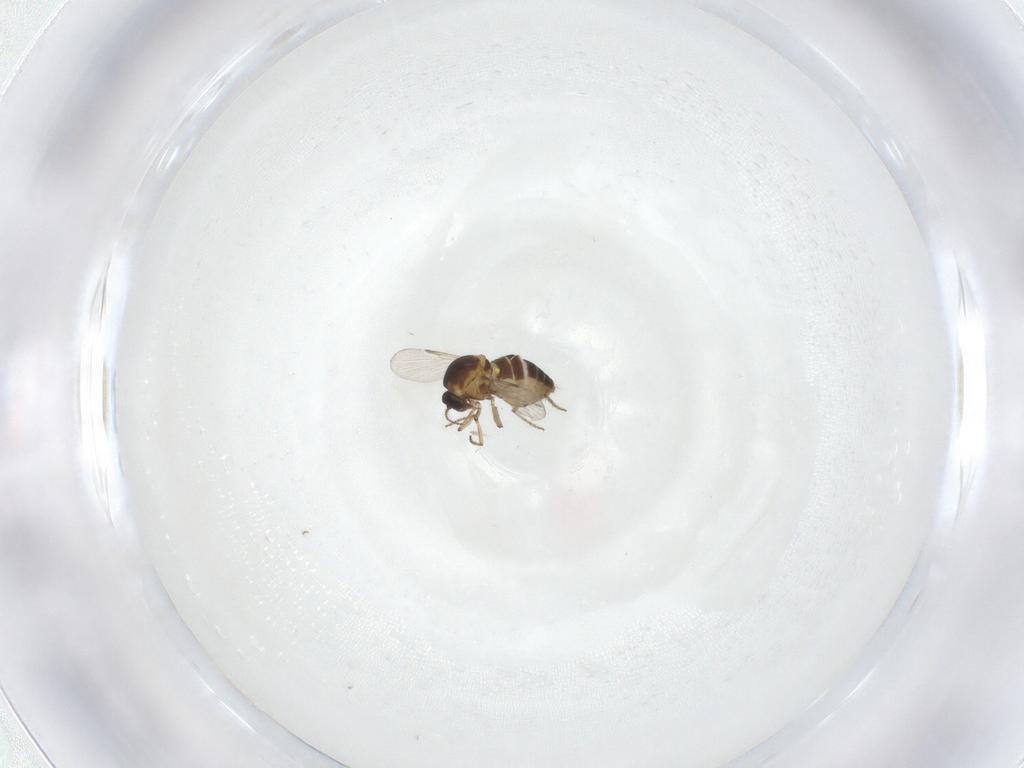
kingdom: Animalia
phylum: Arthropoda
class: Insecta
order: Diptera
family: Ceratopogonidae
